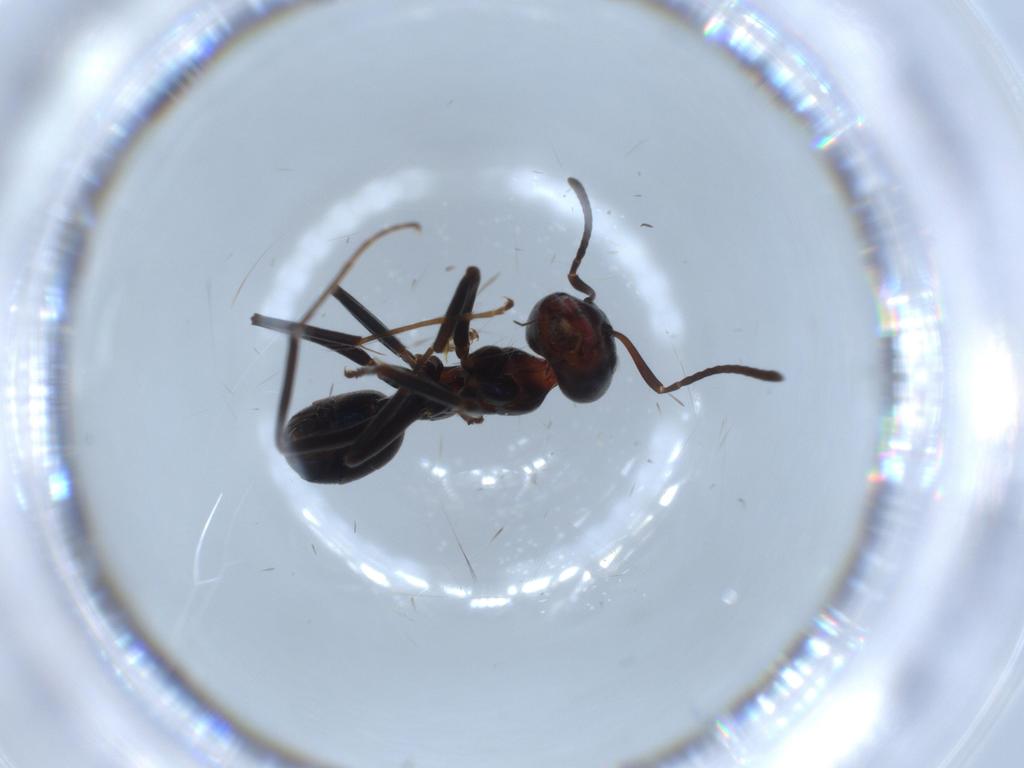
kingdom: Animalia
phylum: Arthropoda
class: Insecta
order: Hymenoptera
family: Formicidae
